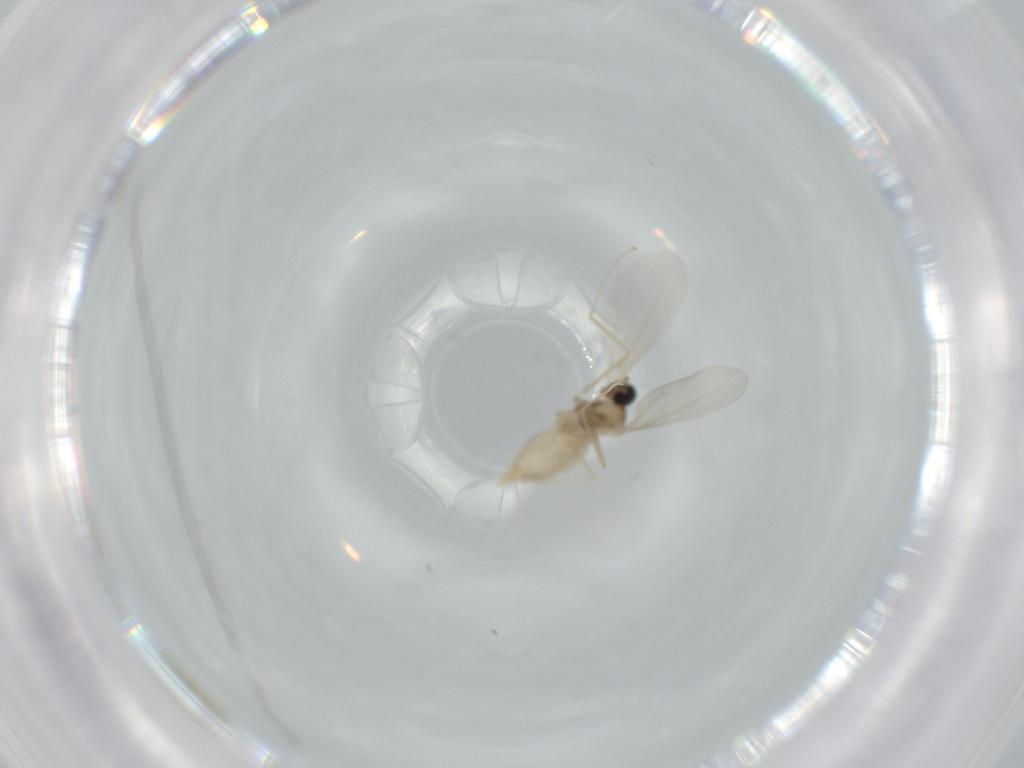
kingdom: Animalia
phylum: Arthropoda
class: Insecta
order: Diptera
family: Chironomidae
